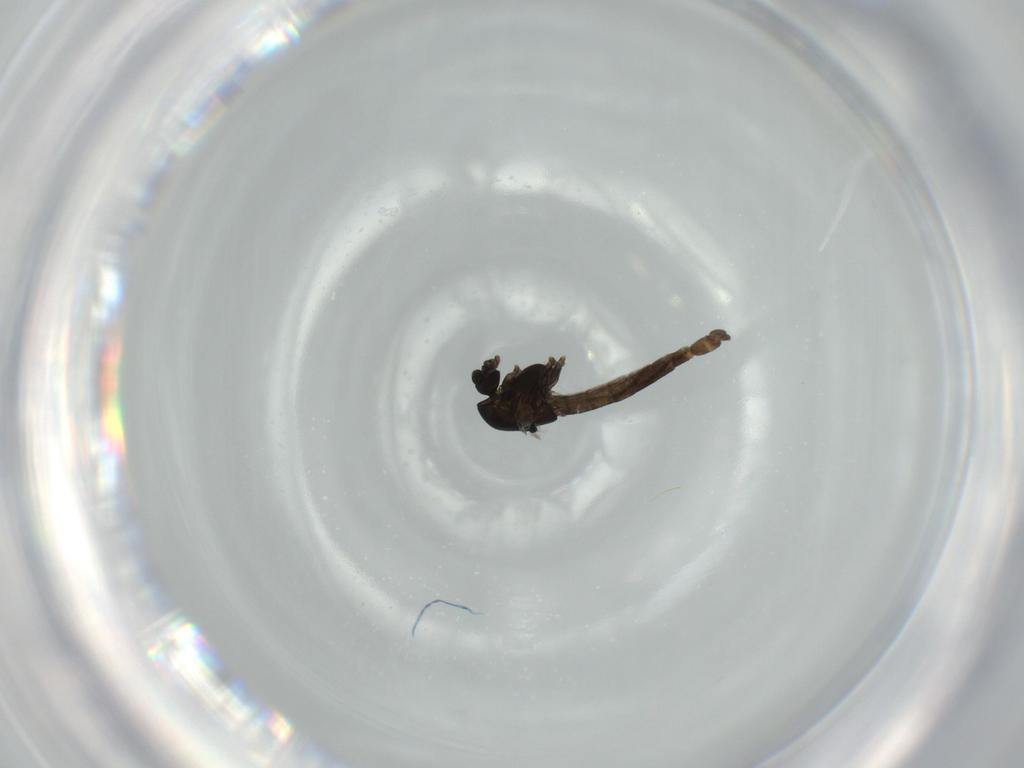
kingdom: Animalia
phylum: Arthropoda
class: Insecta
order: Diptera
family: Chironomidae
